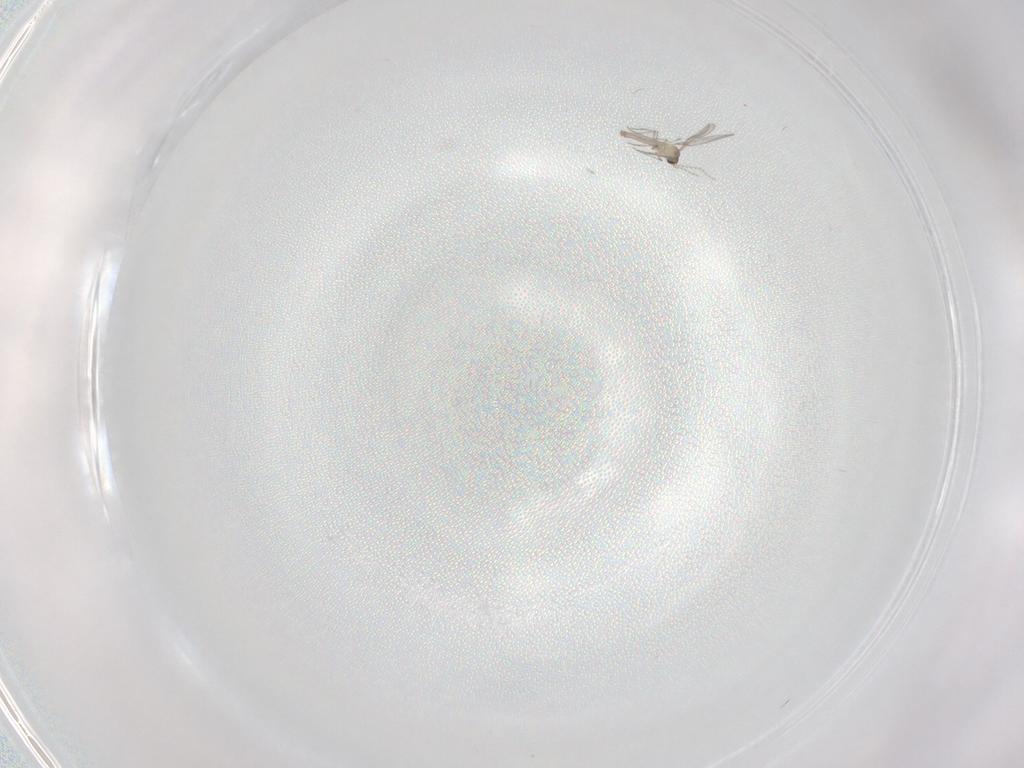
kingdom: Animalia
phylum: Arthropoda
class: Insecta
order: Diptera
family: Cecidomyiidae
